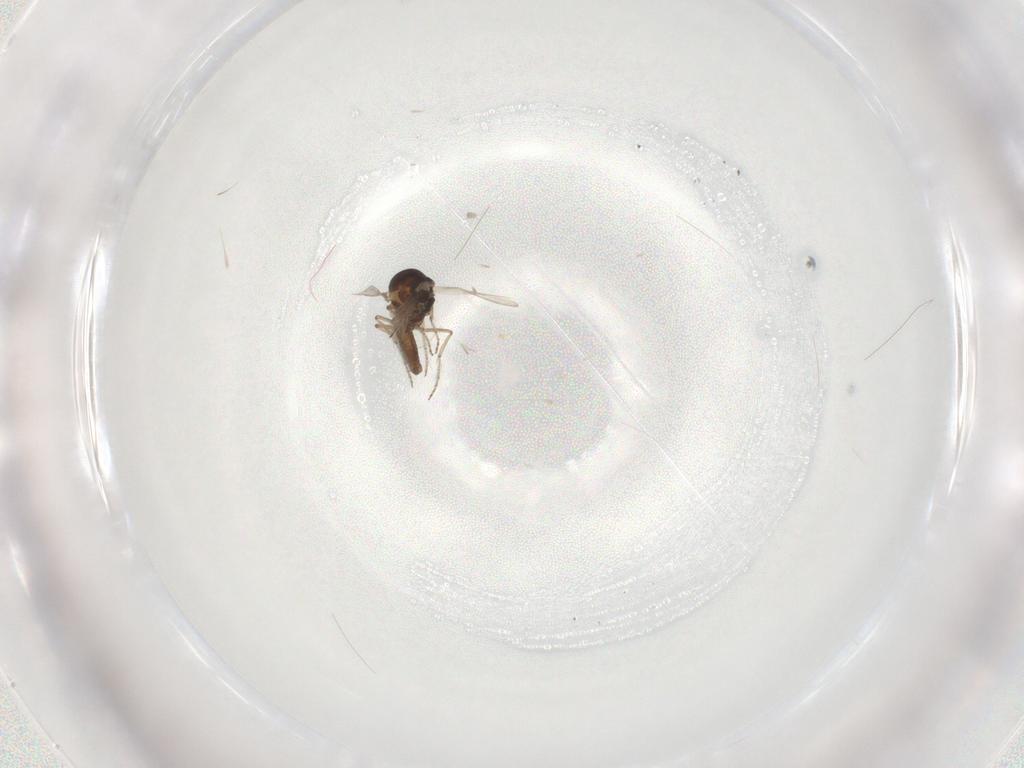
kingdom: Animalia
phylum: Arthropoda
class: Insecta
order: Diptera
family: Ceratopogonidae
